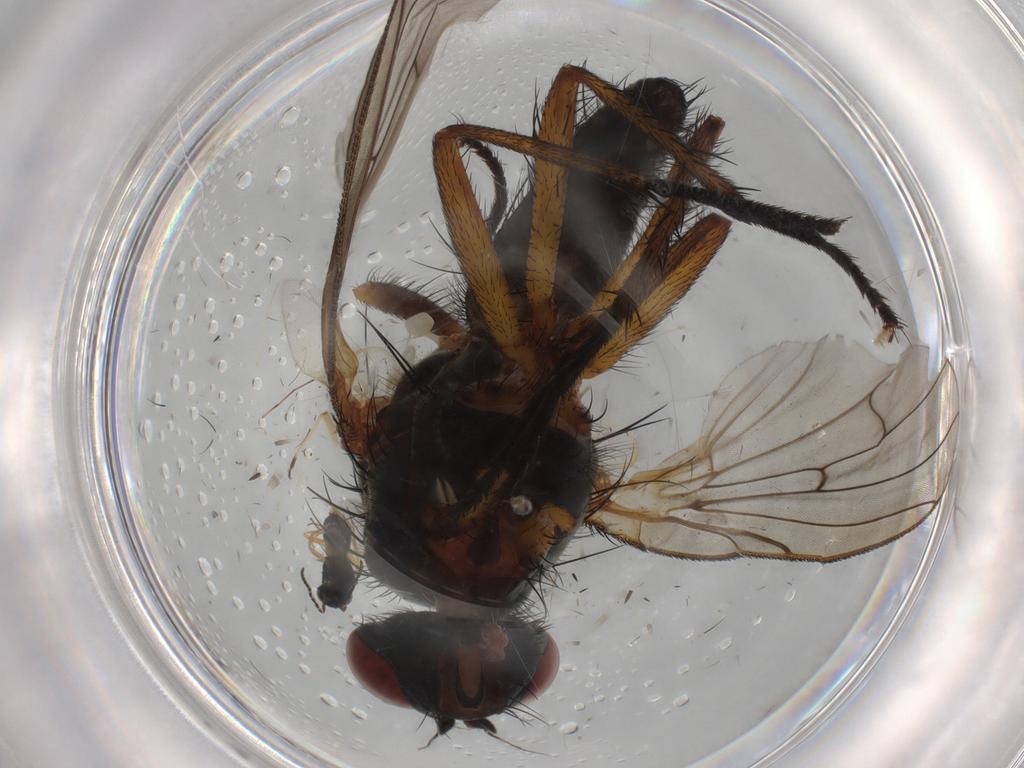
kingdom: Animalia
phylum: Arthropoda
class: Insecta
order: Diptera
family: Anthomyiidae
